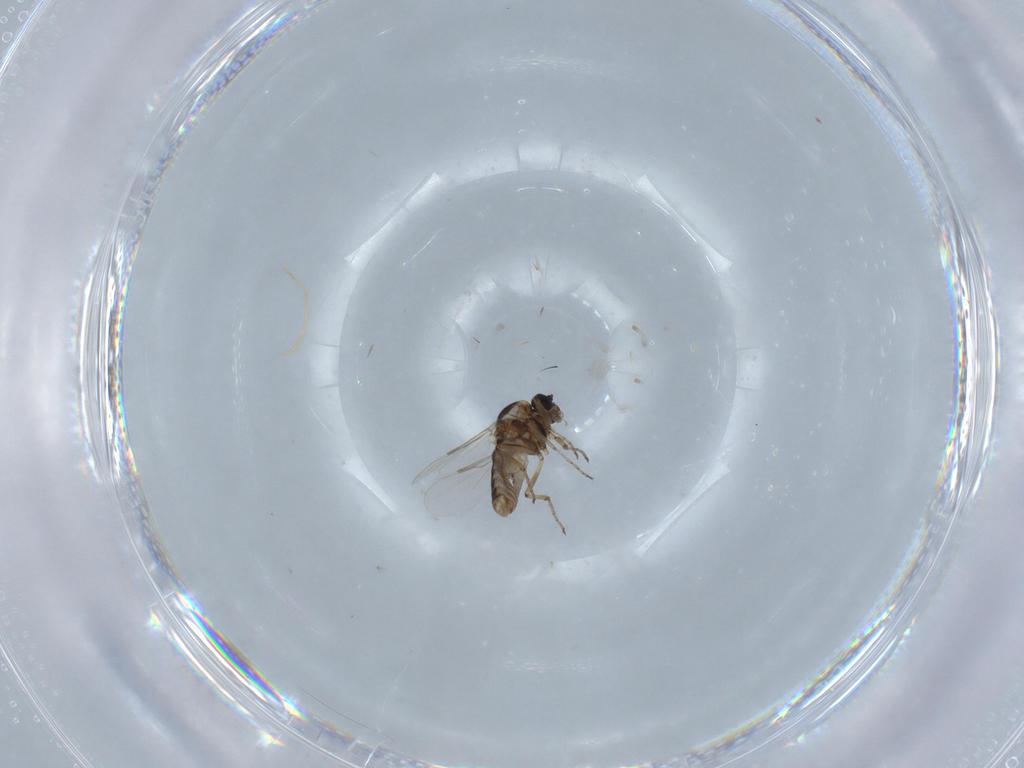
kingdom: Animalia
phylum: Arthropoda
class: Insecta
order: Diptera
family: Ceratopogonidae
